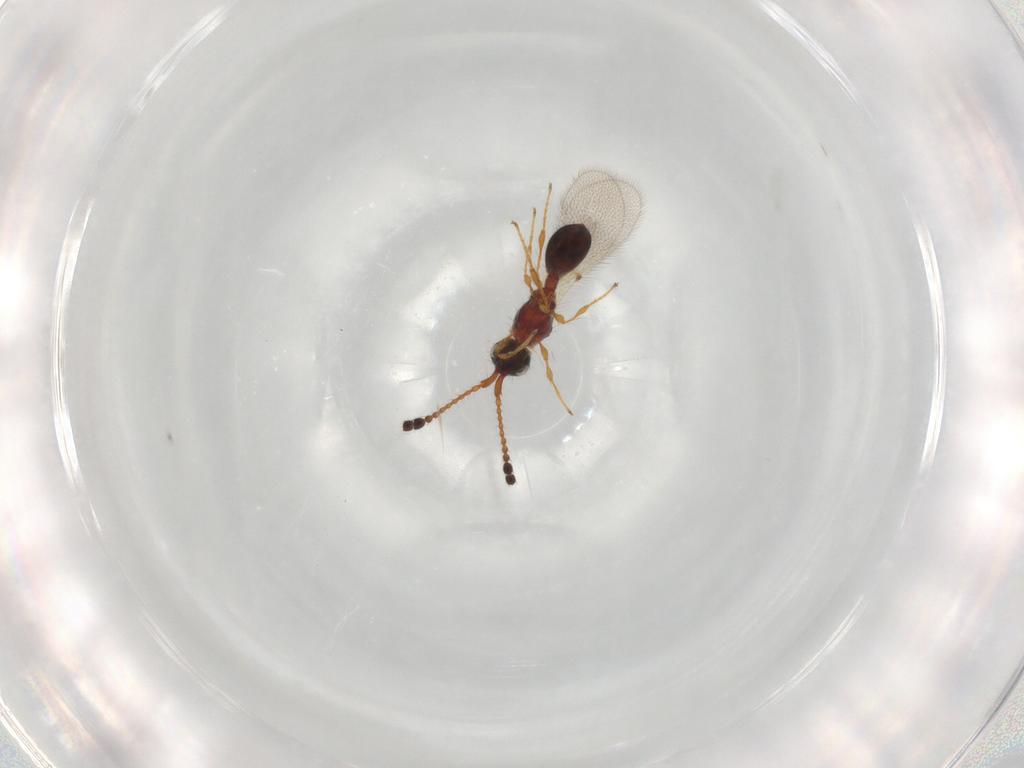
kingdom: Animalia
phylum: Arthropoda
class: Insecta
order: Hymenoptera
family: Diapriidae
